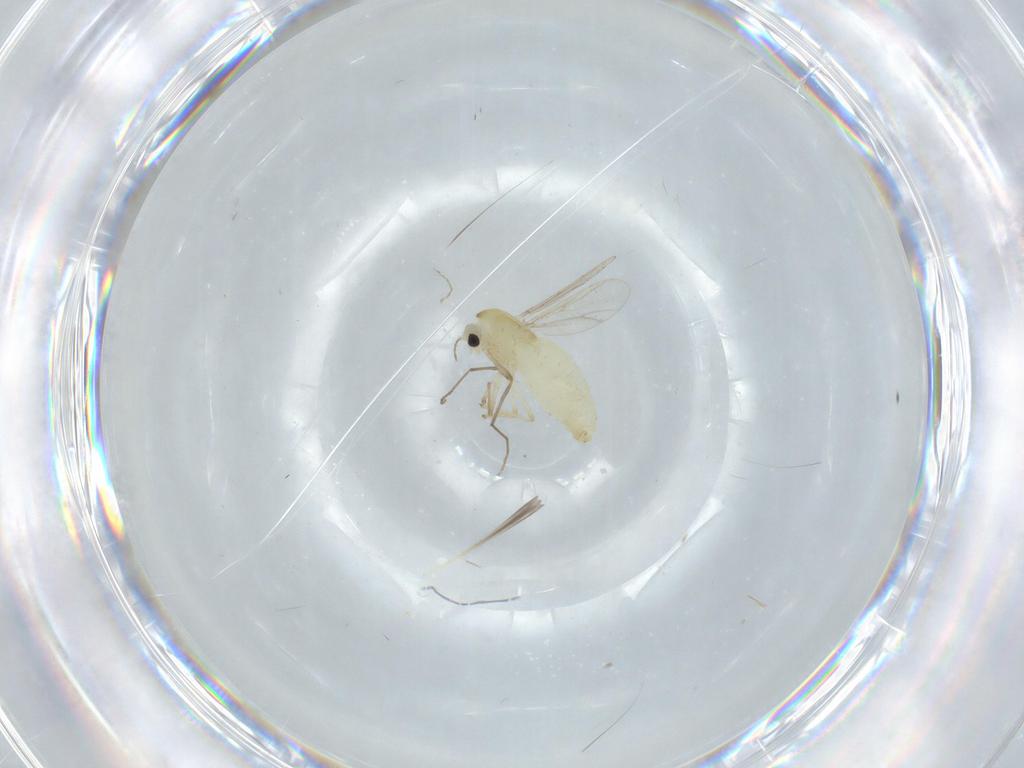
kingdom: Animalia
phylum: Arthropoda
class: Insecta
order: Diptera
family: Chironomidae
